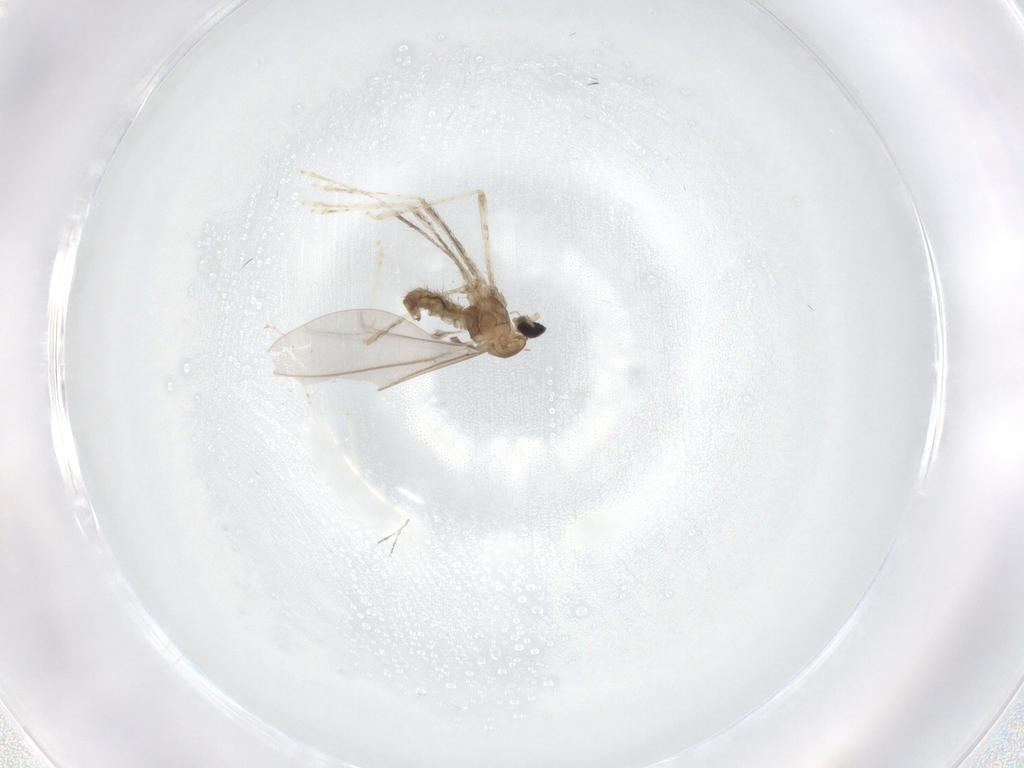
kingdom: Animalia
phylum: Arthropoda
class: Insecta
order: Diptera
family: Cecidomyiidae
